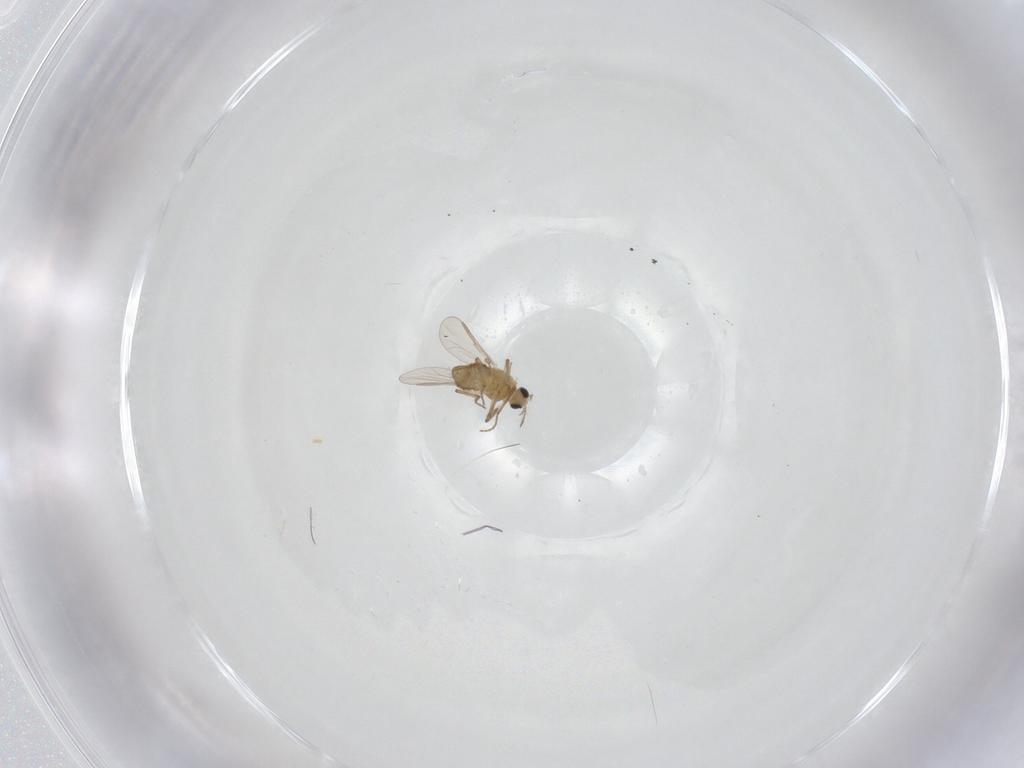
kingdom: Animalia
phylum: Arthropoda
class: Insecta
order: Diptera
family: Chironomidae
